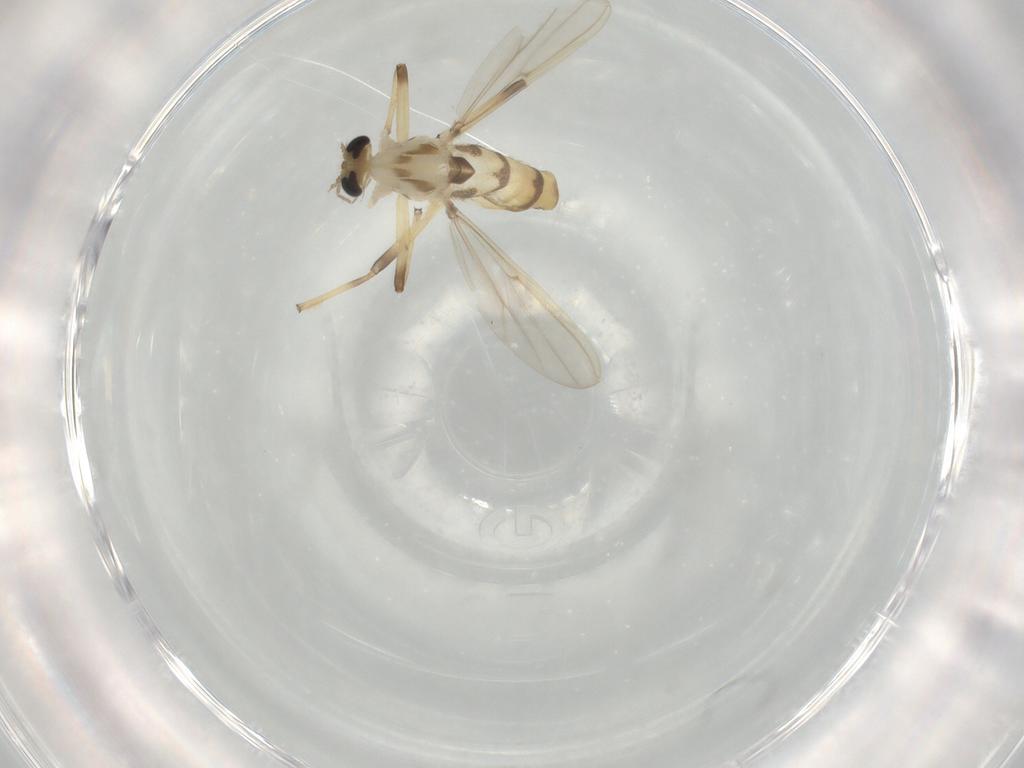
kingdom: Animalia
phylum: Arthropoda
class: Insecta
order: Diptera
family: Chironomidae
